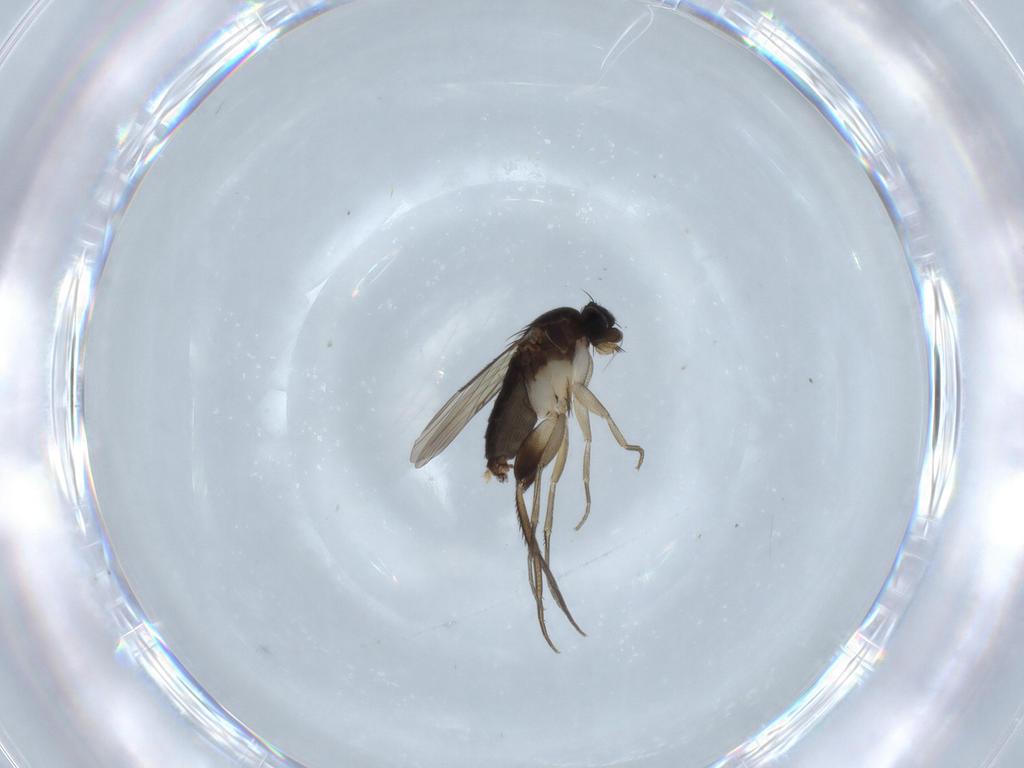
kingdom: Animalia
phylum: Arthropoda
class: Insecta
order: Diptera
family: Phoridae
